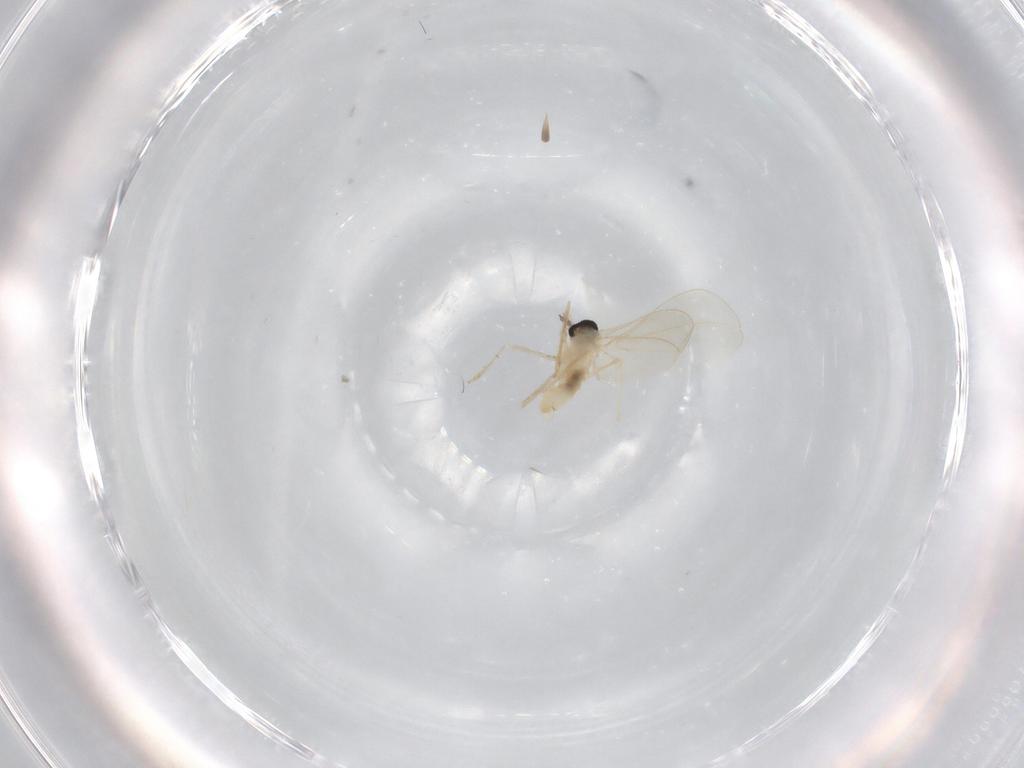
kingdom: Animalia
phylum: Arthropoda
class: Insecta
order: Diptera
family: Cecidomyiidae
